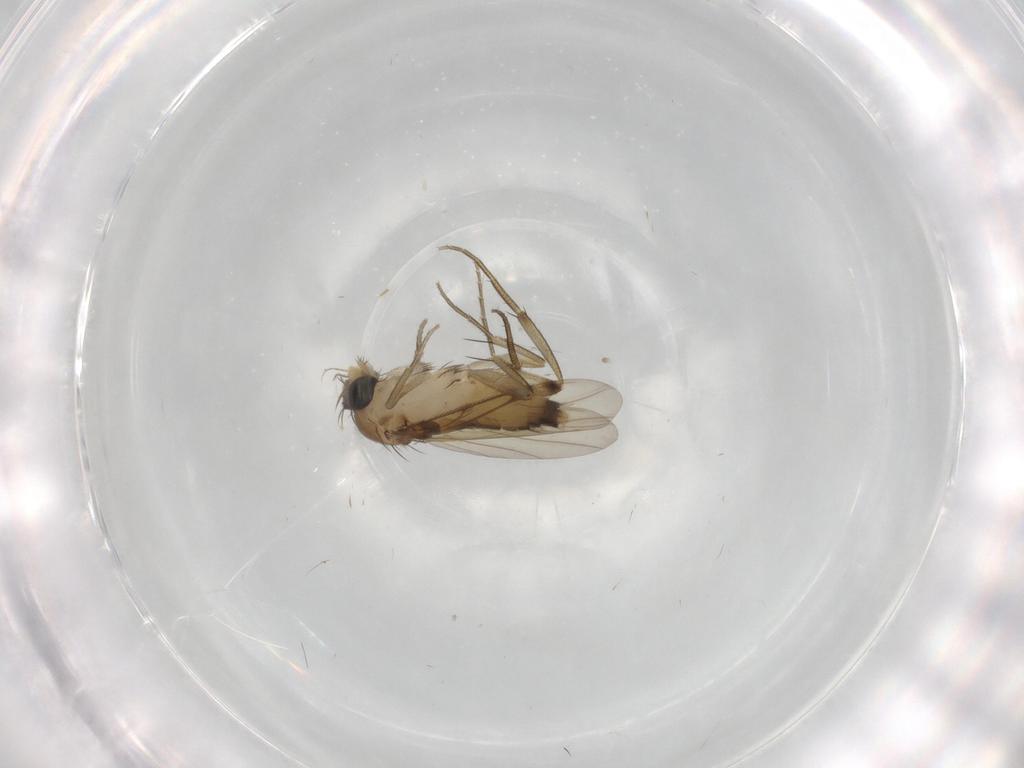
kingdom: Animalia
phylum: Arthropoda
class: Insecta
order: Diptera
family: Phoridae
